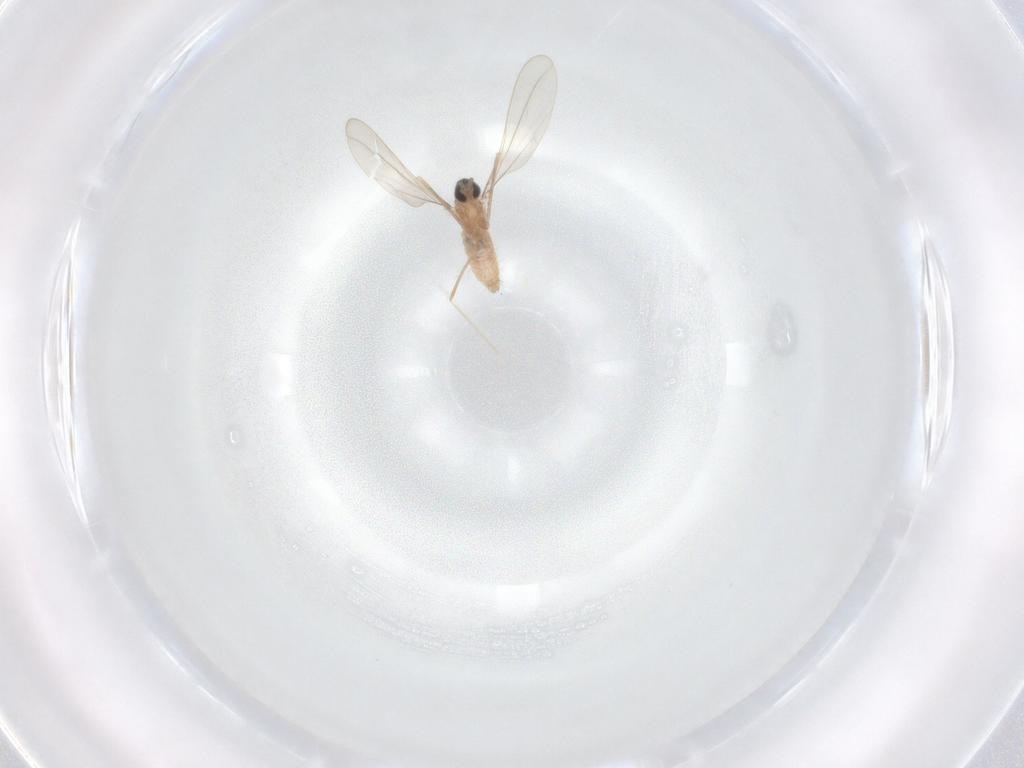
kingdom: Animalia
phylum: Arthropoda
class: Insecta
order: Diptera
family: Cecidomyiidae
